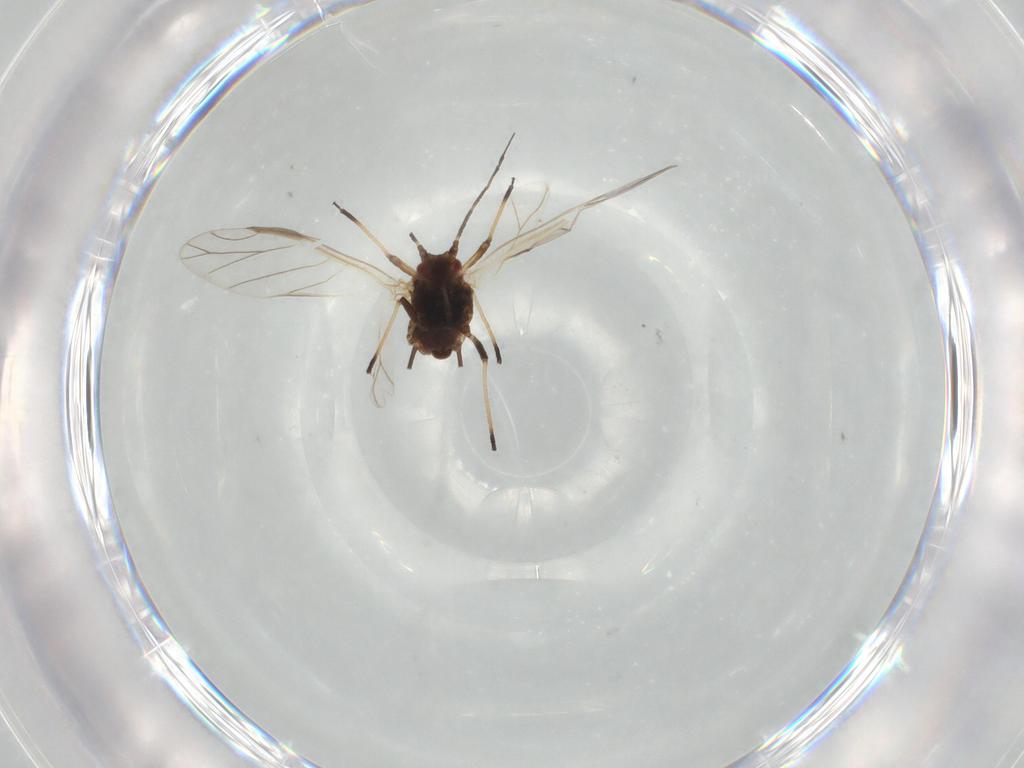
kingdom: Animalia
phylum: Arthropoda
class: Insecta
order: Hemiptera
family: Aphididae
